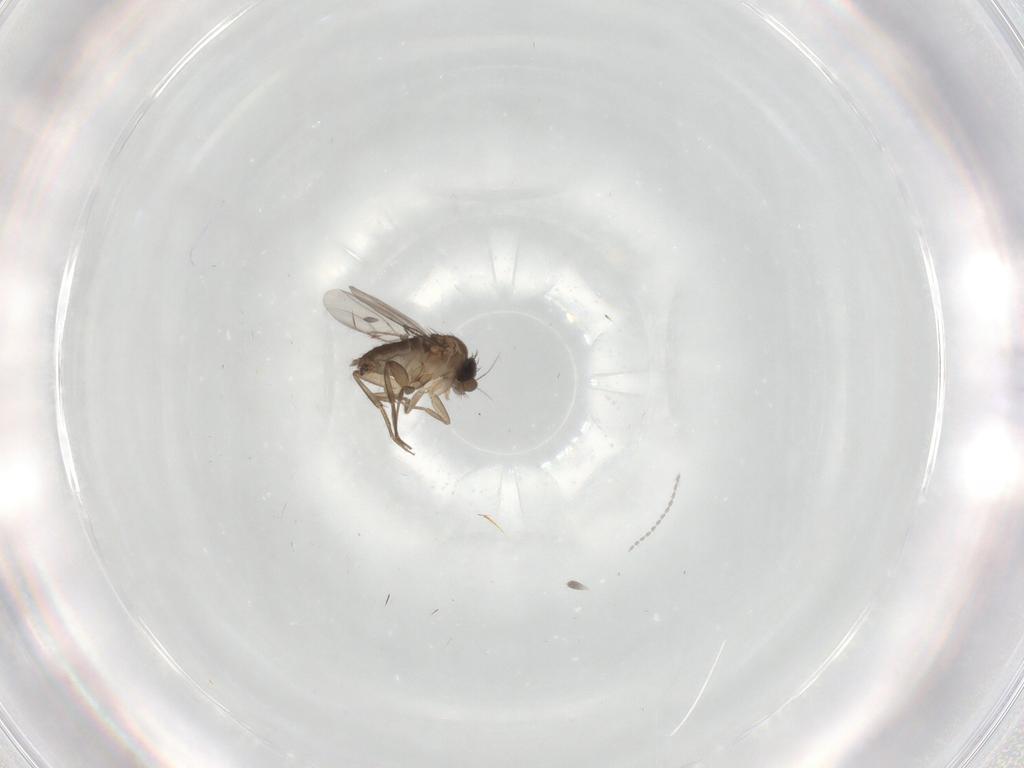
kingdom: Animalia
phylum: Arthropoda
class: Insecta
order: Diptera
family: Phoridae
